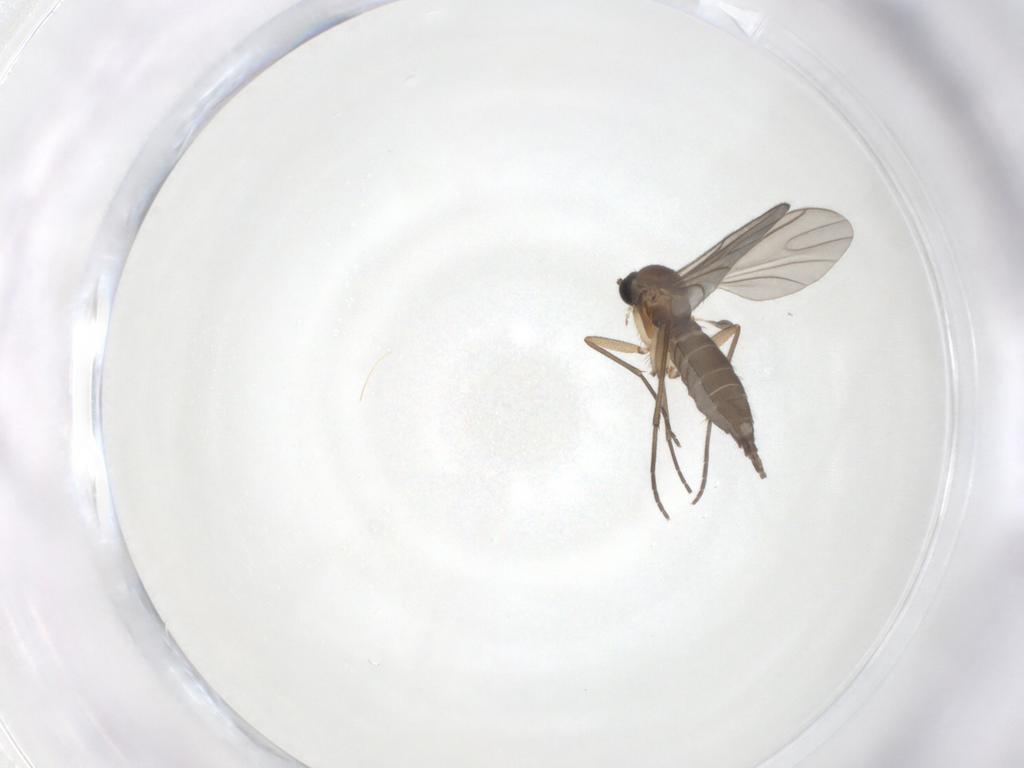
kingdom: Animalia
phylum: Arthropoda
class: Insecta
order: Diptera
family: Sciaridae
